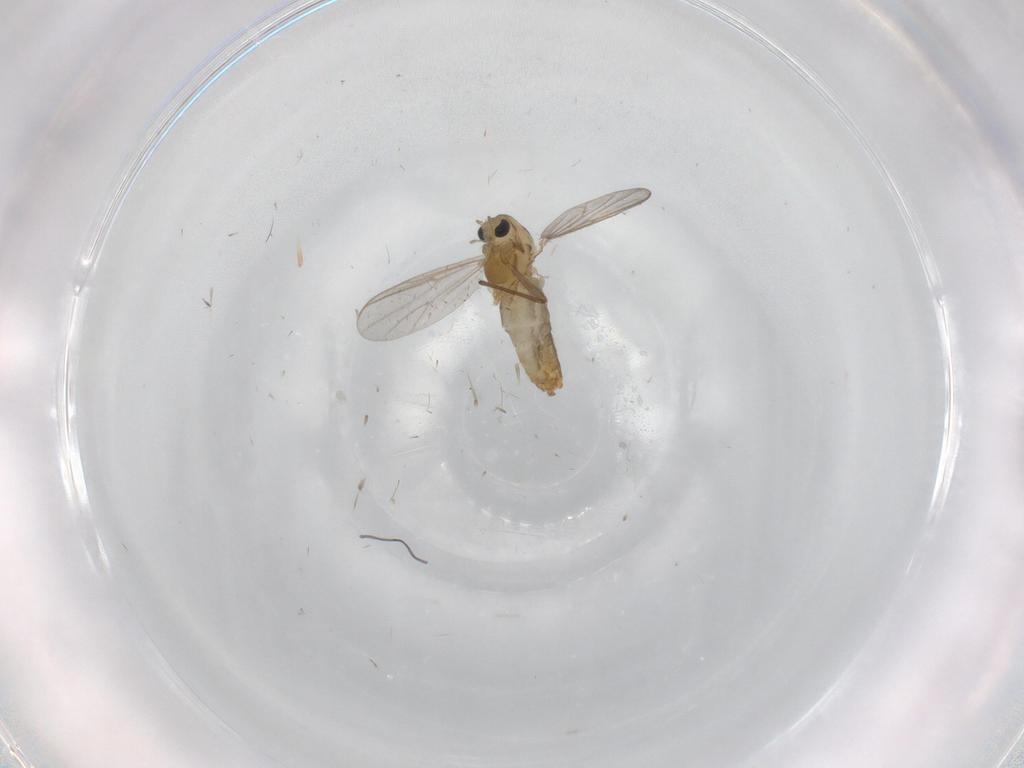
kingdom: Animalia
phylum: Arthropoda
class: Insecta
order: Diptera
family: Chironomidae
